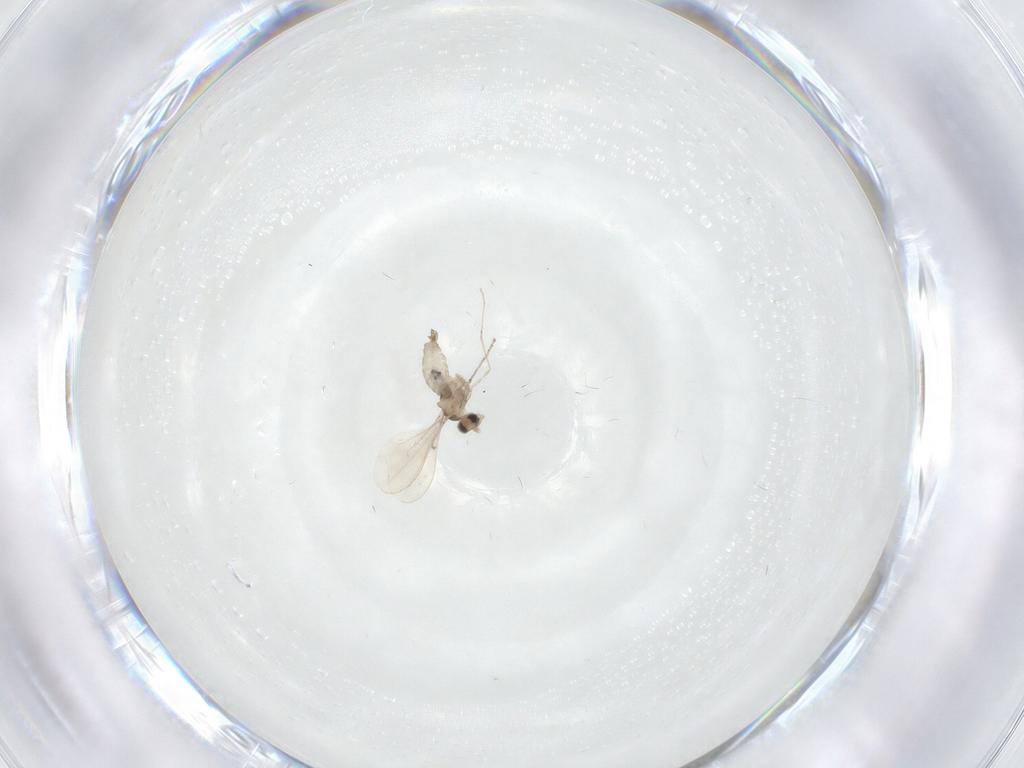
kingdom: Animalia
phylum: Arthropoda
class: Insecta
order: Diptera
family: Cecidomyiidae
